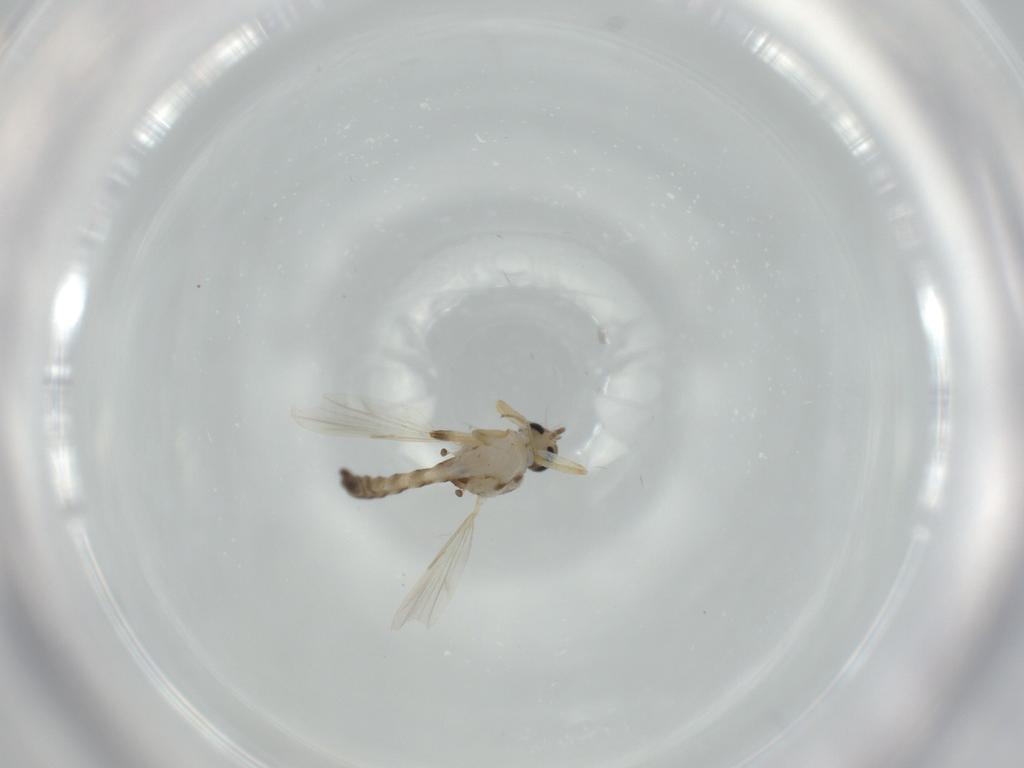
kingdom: Animalia
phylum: Arthropoda
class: Insecta
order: Diptera
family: Ceratopogonidae
